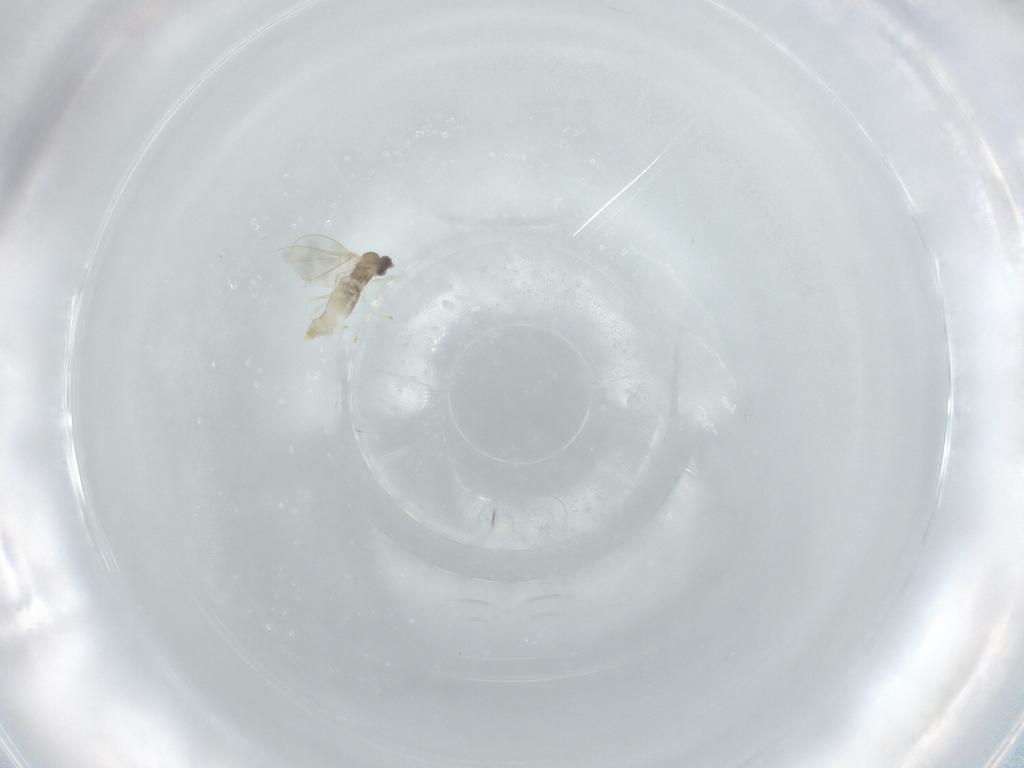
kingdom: Animalia
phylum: Arthropoda
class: Insecta
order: Diptera
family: Cecidomyiidae
